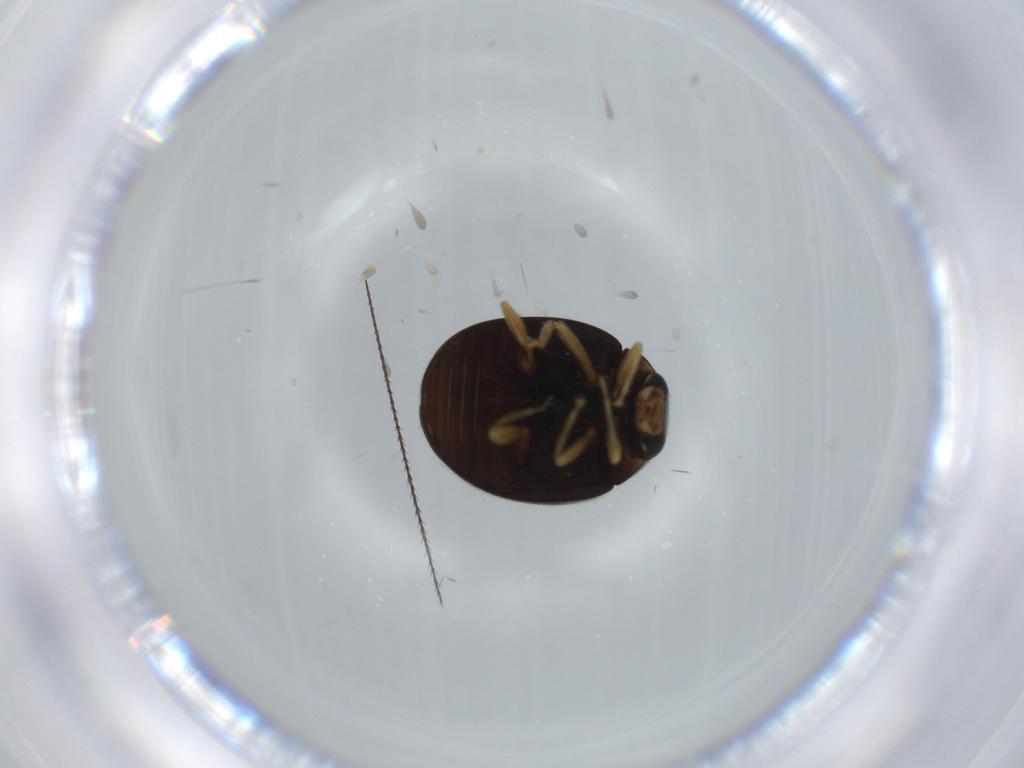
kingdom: Animalia
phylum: Arthropoda
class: Insecta
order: Coleoptera
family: Coccinellidae
